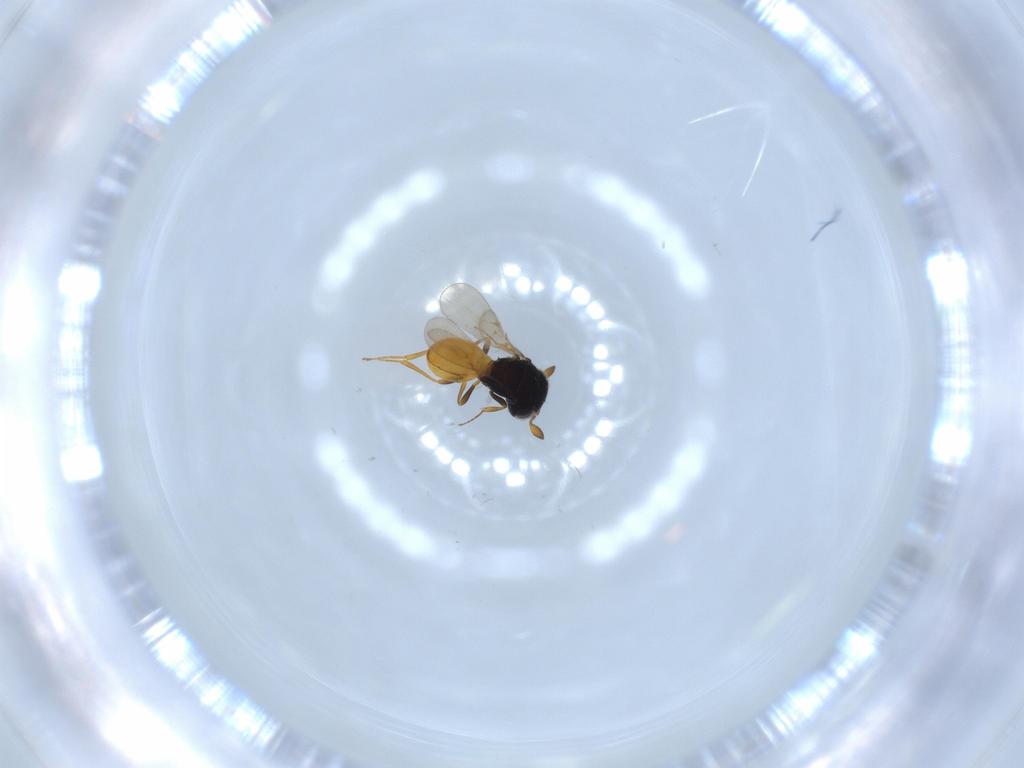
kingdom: Animalia
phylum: Arthropoda
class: Insecta
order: Hymenoptera
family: Scelionidae
